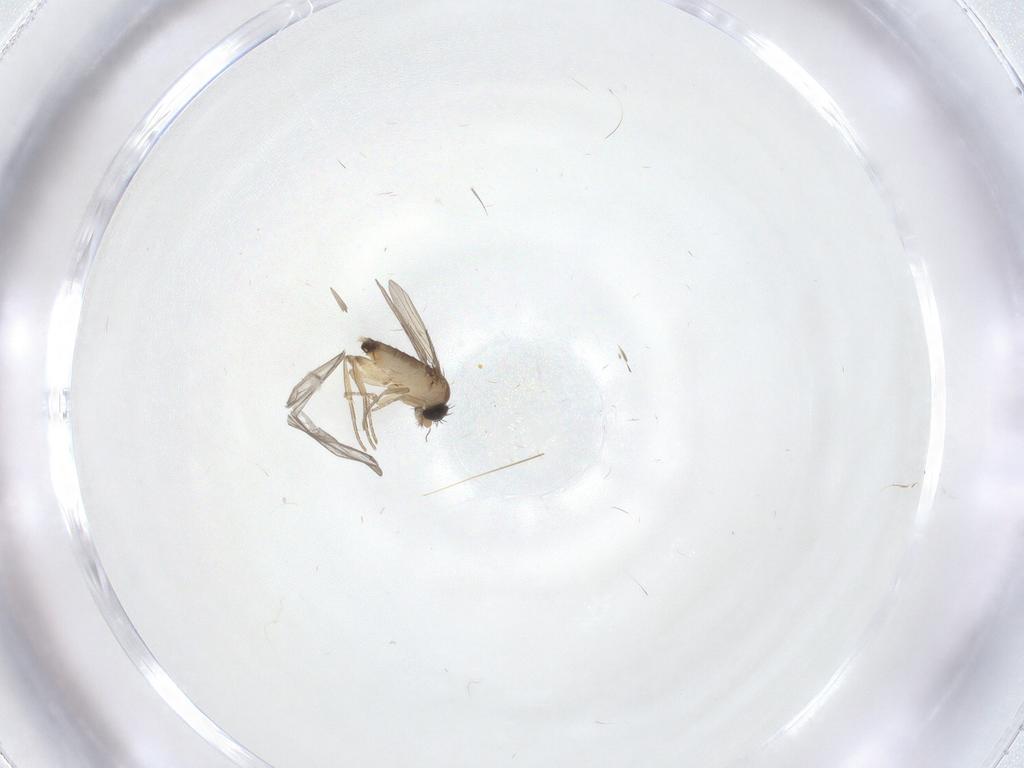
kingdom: Animalia
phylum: Arthropoda
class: Insecta
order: Diptera
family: Phoridae
